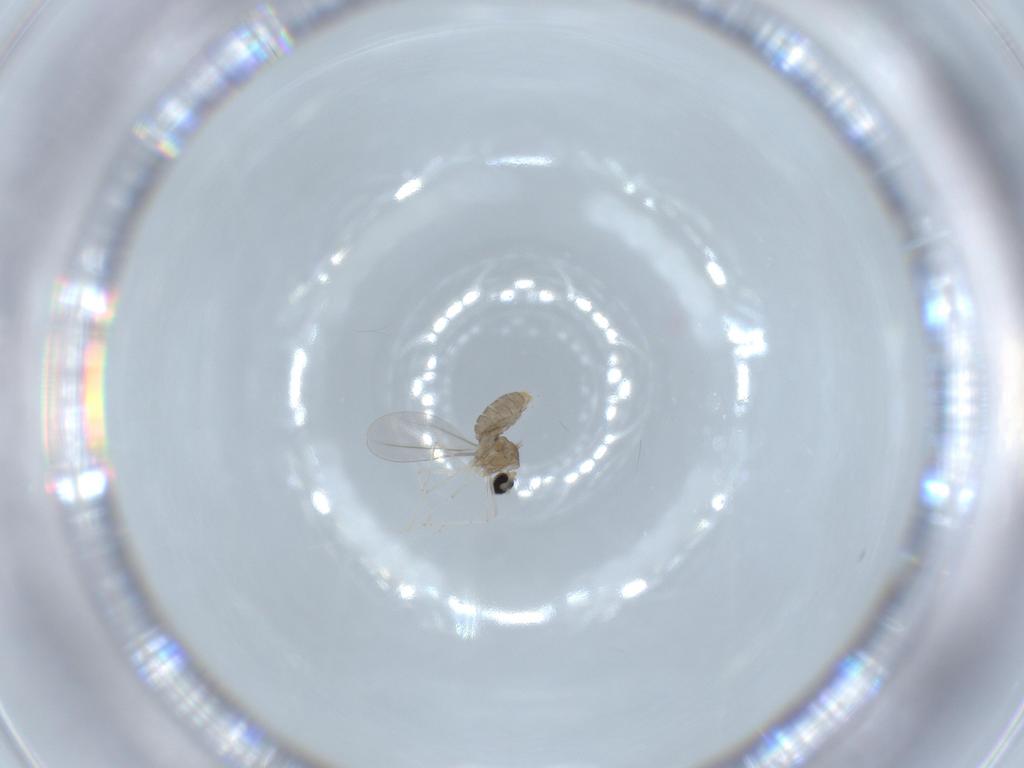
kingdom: Animalia
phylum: Arthropoda
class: Insecta
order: Diptera
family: Cecidomyiidae
